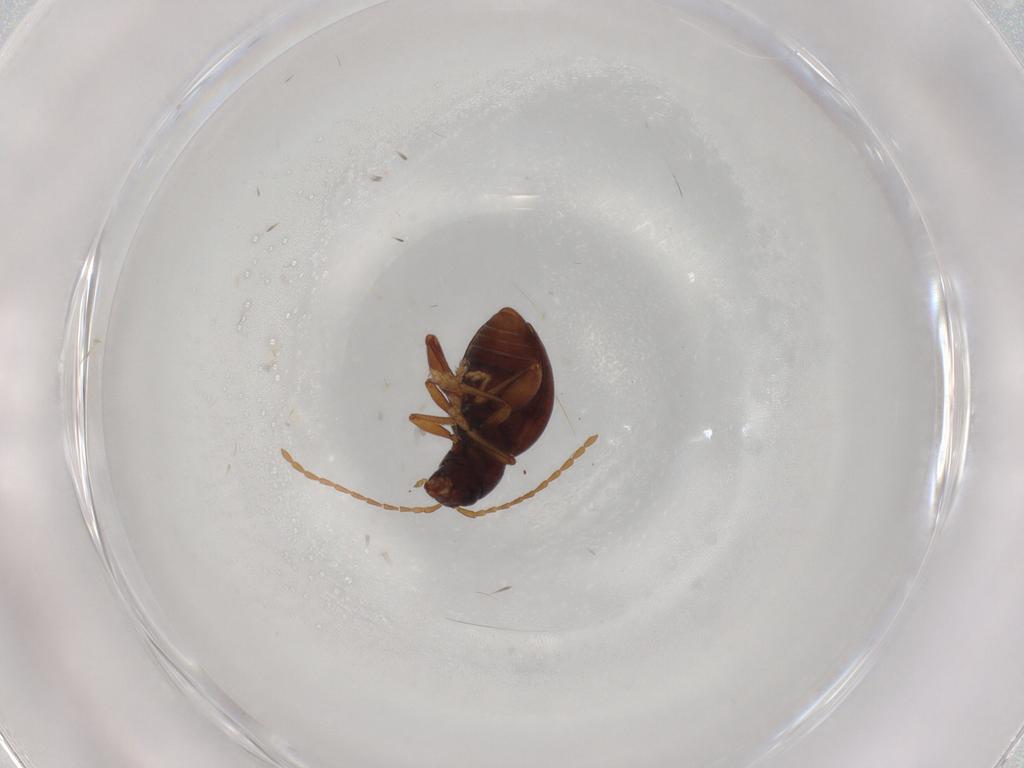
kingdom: Animalia
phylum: Arthropoda
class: Insecta
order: Coleoptera
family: Chrysomelidae
